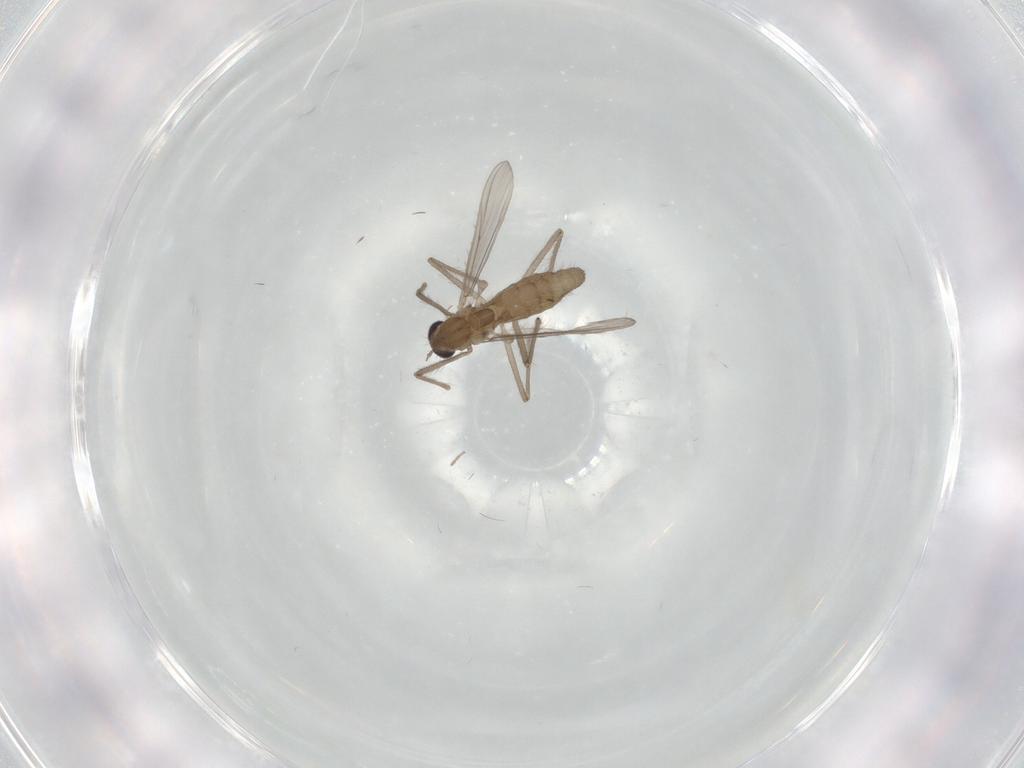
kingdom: Animalia
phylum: Arthropoda
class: Insecta
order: Diptera
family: Chironomidae
